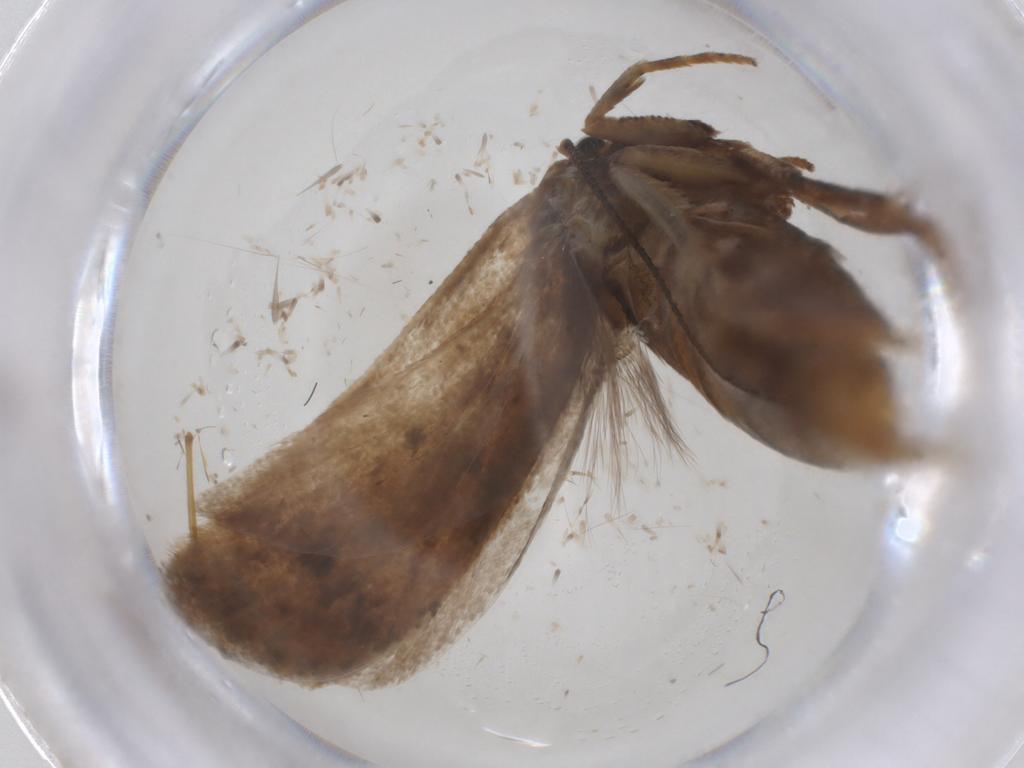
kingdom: Animalia
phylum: Arthropoda
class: Insecta
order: Lepidoptera
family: Oecophoridae
